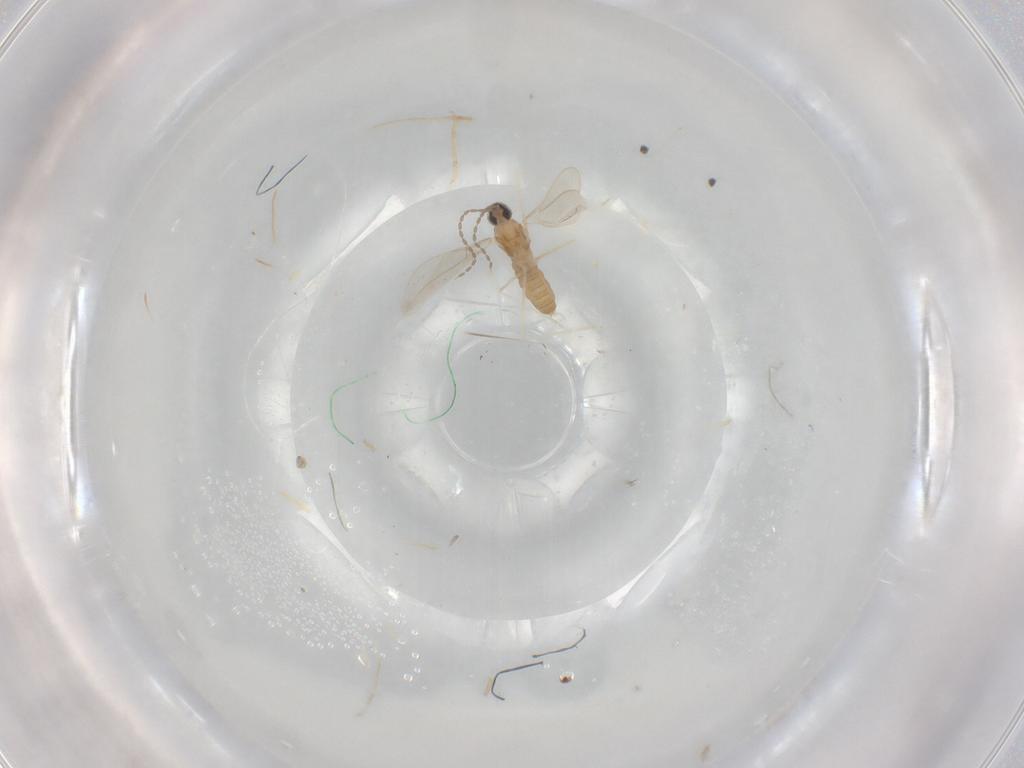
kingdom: Animalia
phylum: Arthropoda
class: Insecta
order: Diptera
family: Cecidomyiidae
